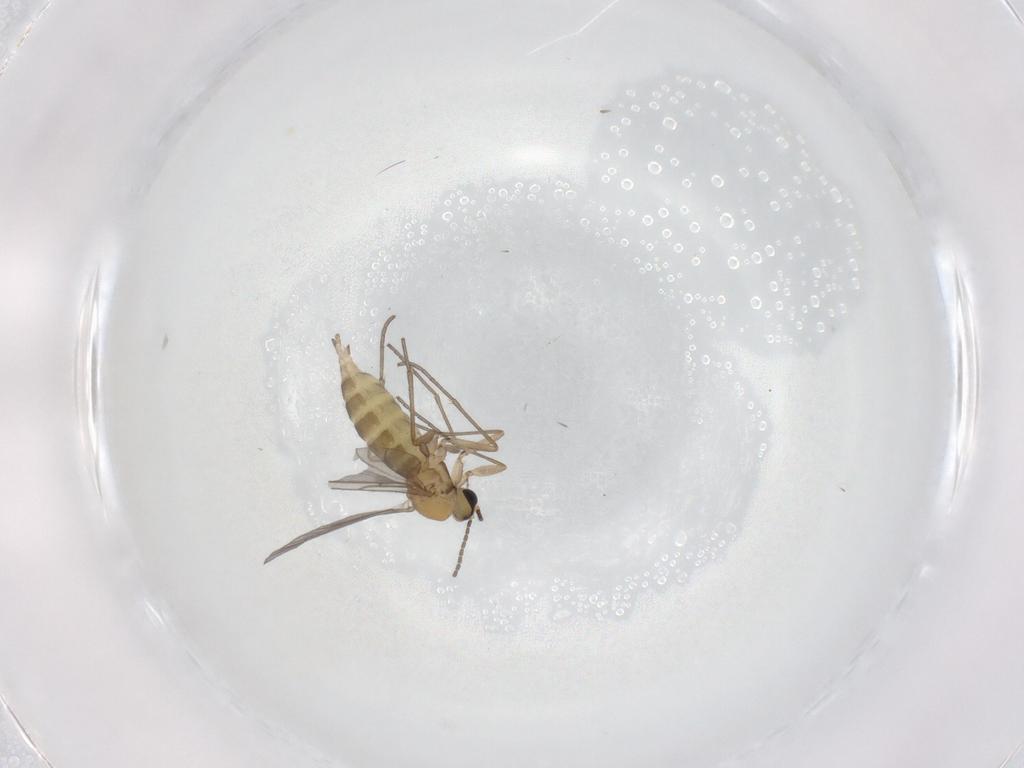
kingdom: Animalia
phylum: Arthropoda
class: Insecta
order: Diptera
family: Sciaridae
